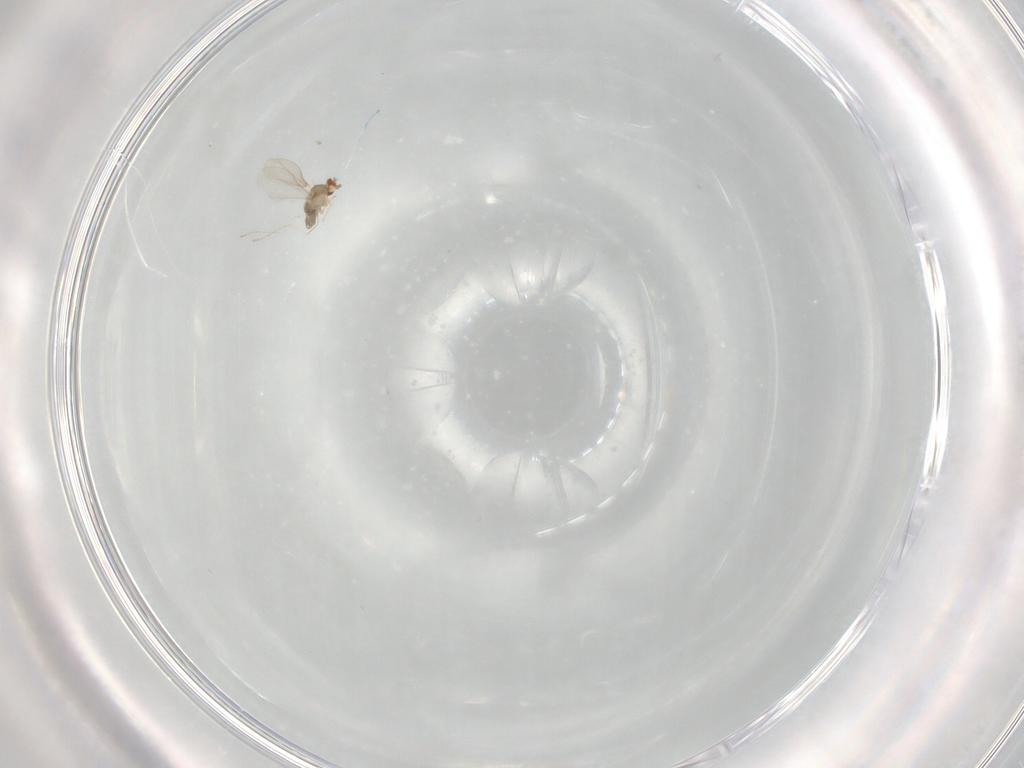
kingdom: Animalia
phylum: Arthropoda
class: Insecta
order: Diptera
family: Cecidomyiidae
